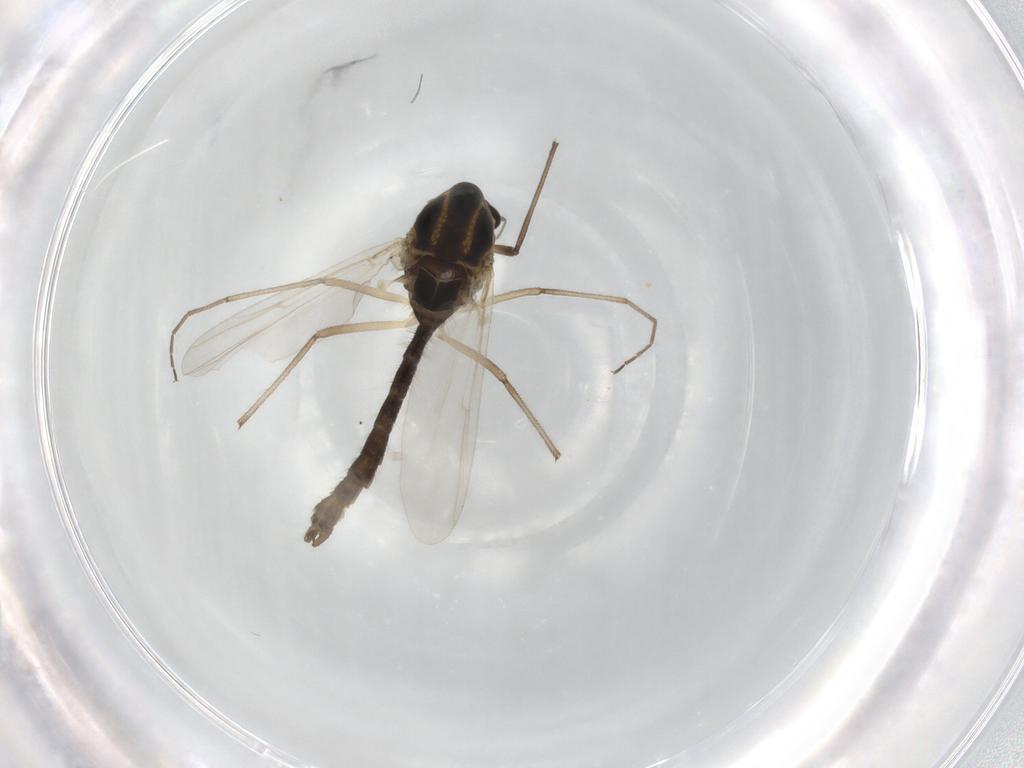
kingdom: Animalia
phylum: Arthropoda
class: Insecta
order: Diptera
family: Chironomidae
